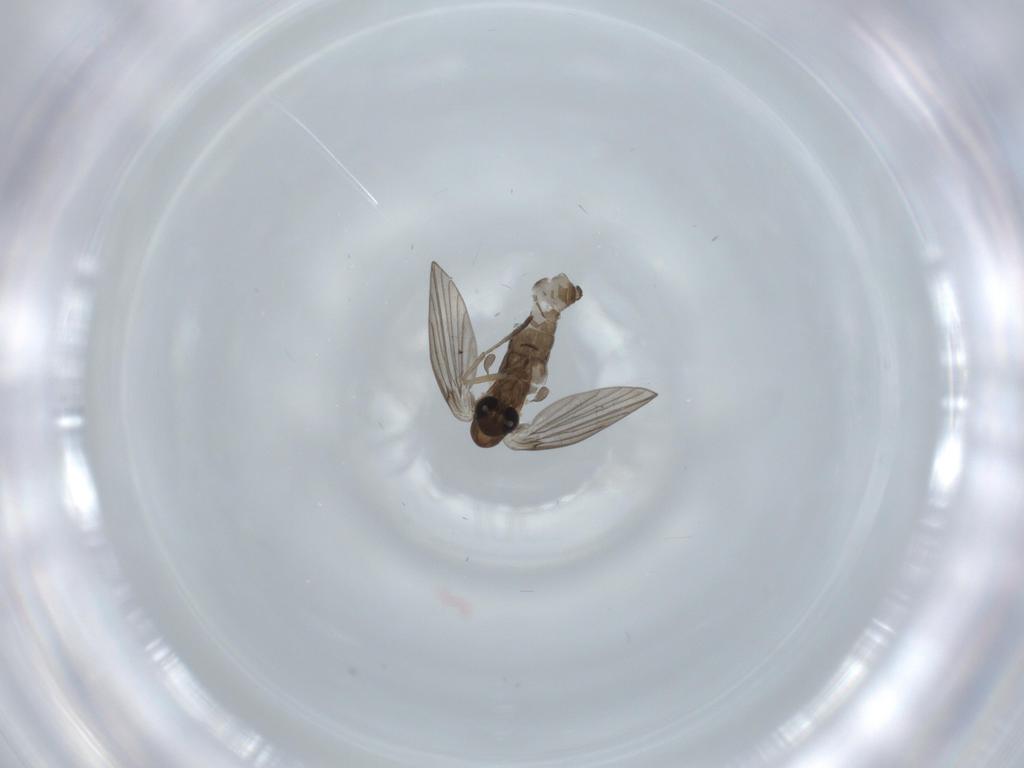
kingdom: Animalia
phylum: Arthropoda
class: Insecta
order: Diptera
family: Psychodidae
